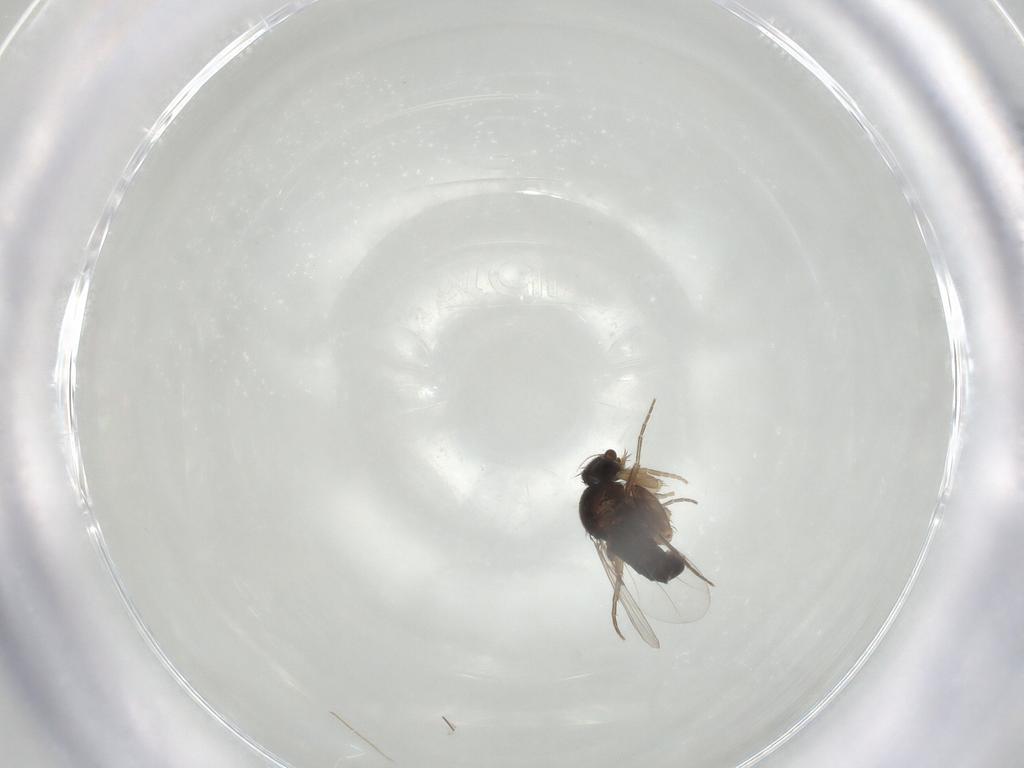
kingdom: Animalia
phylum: Arthropoda
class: Insecta
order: Diptera
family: Phoridae
